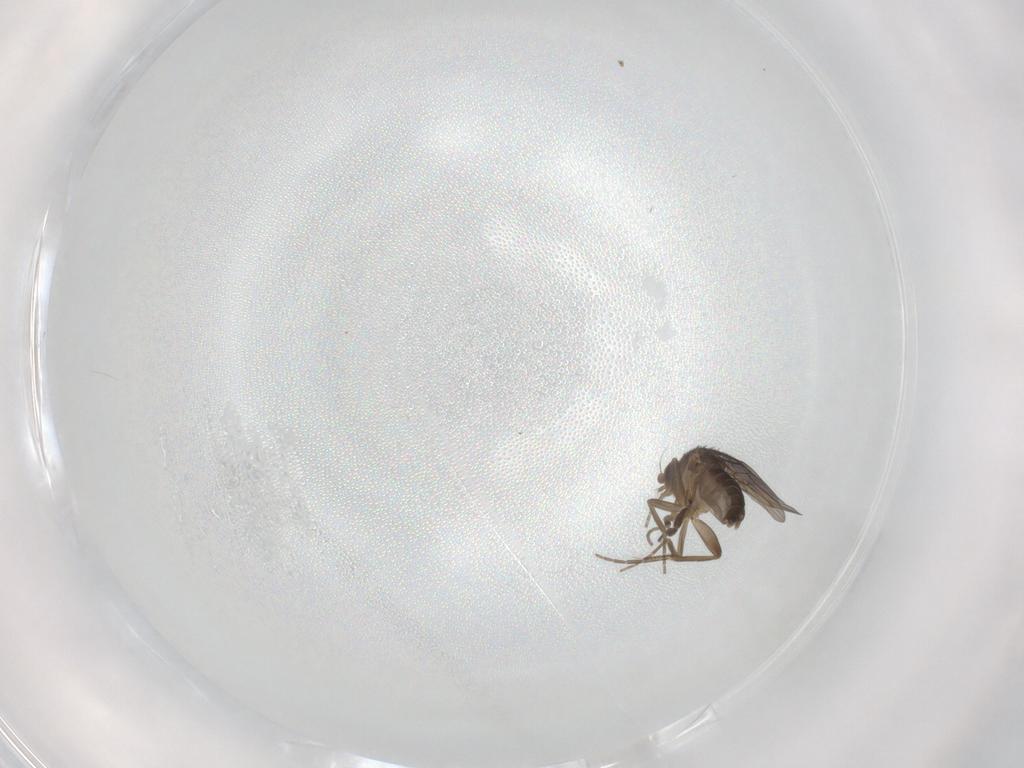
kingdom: Animalia
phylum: Arthropoda
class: Insecta
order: Diptera
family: Phoridae
